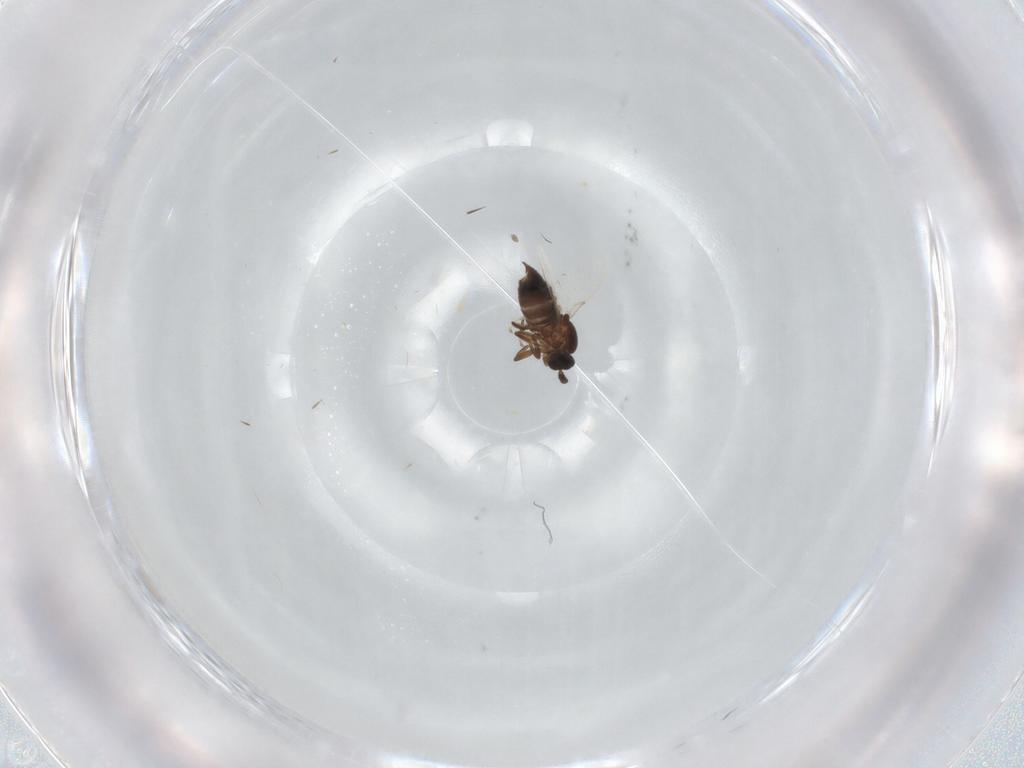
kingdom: Animalia
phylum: Arthropoda
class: Insecta
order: Diptera
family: Scatopsidae
